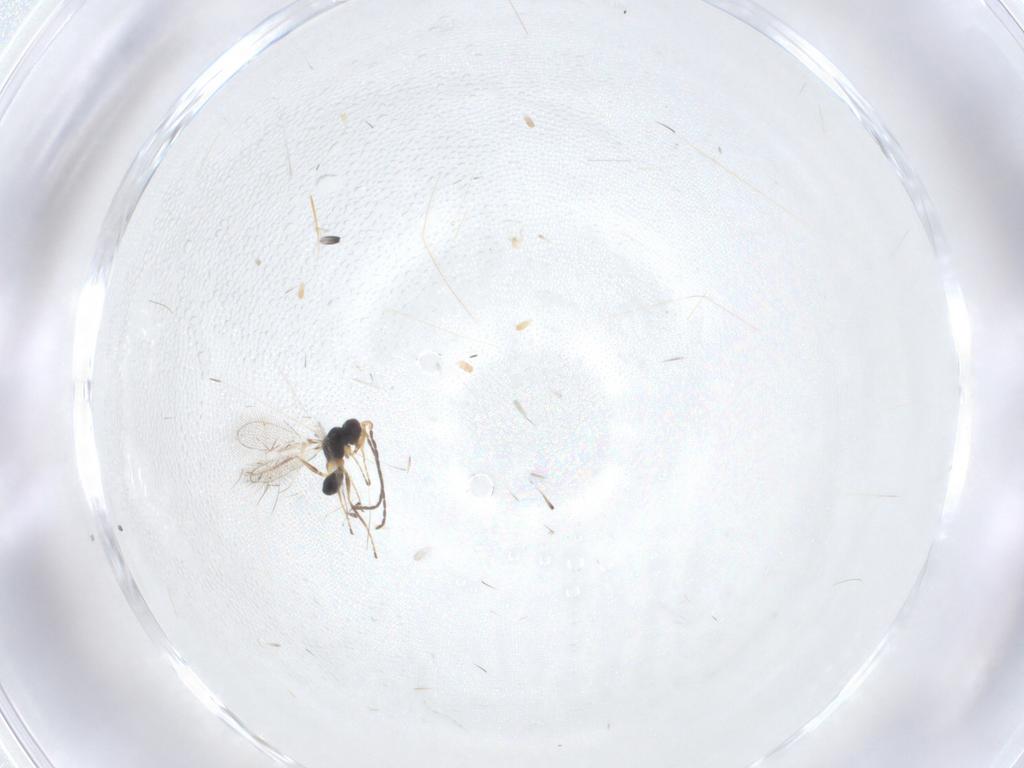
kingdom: Animalia
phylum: Arthropoda
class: Insecta
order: Hymenoptera
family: Mymaridae
